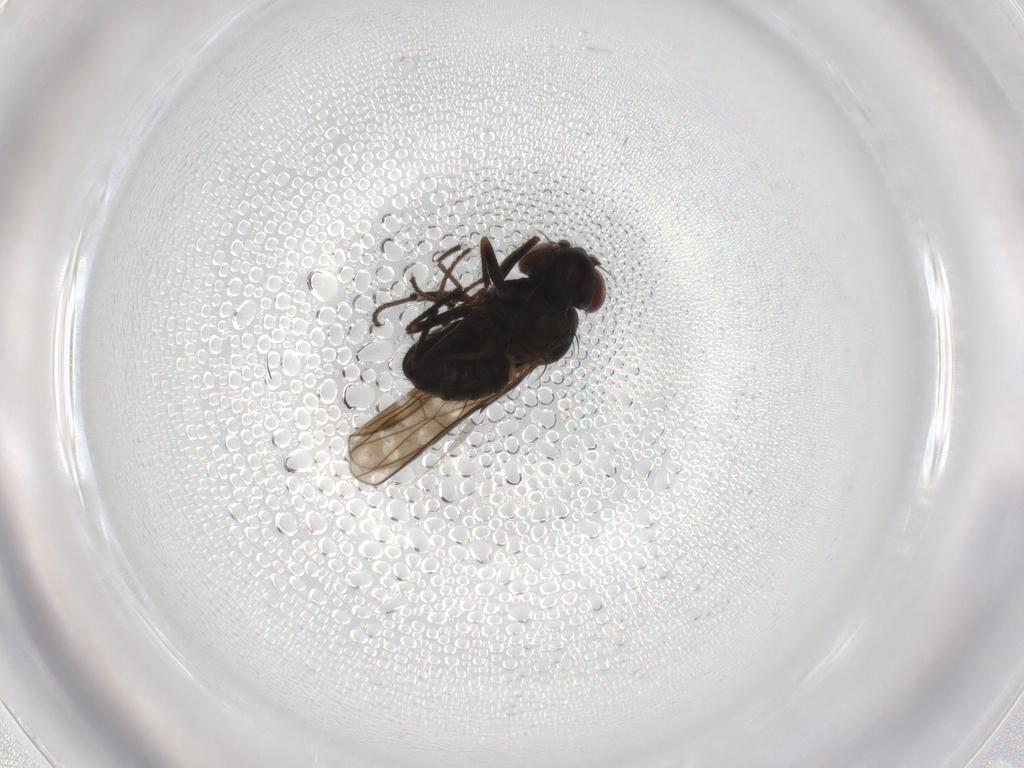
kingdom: Animalia
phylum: Arthropoda
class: Insecta
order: Diptera
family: Ephydridae
